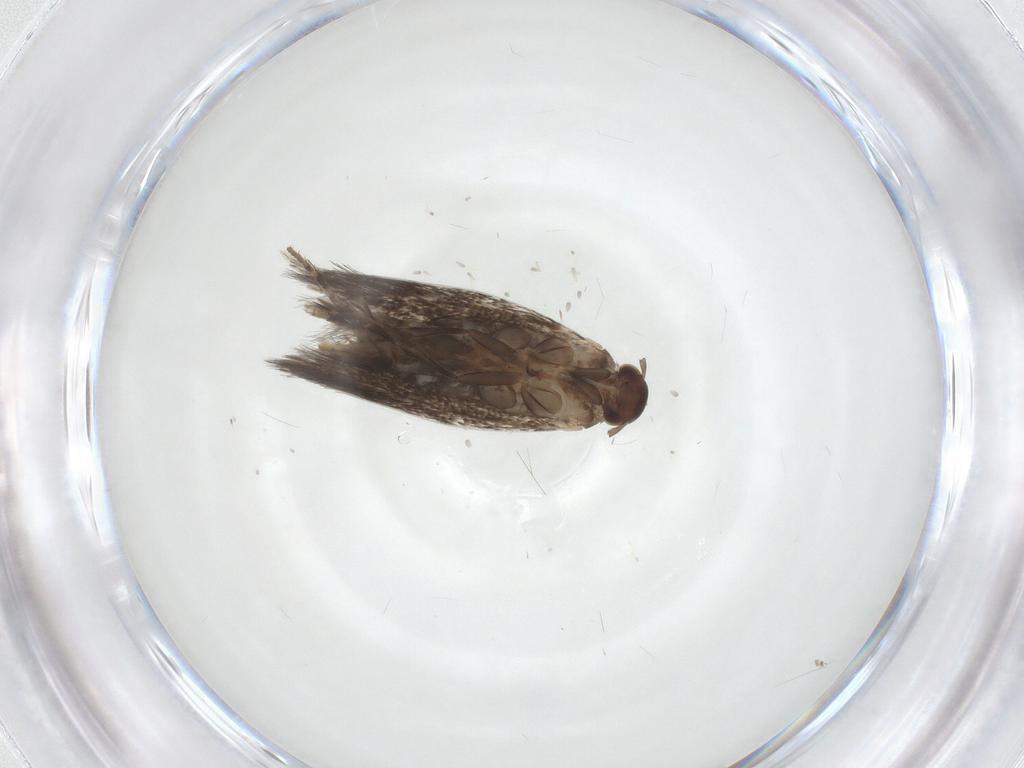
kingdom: Animalia
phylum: Arthropoda
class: Insecta
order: Lepidoptera
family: Elachistidae
